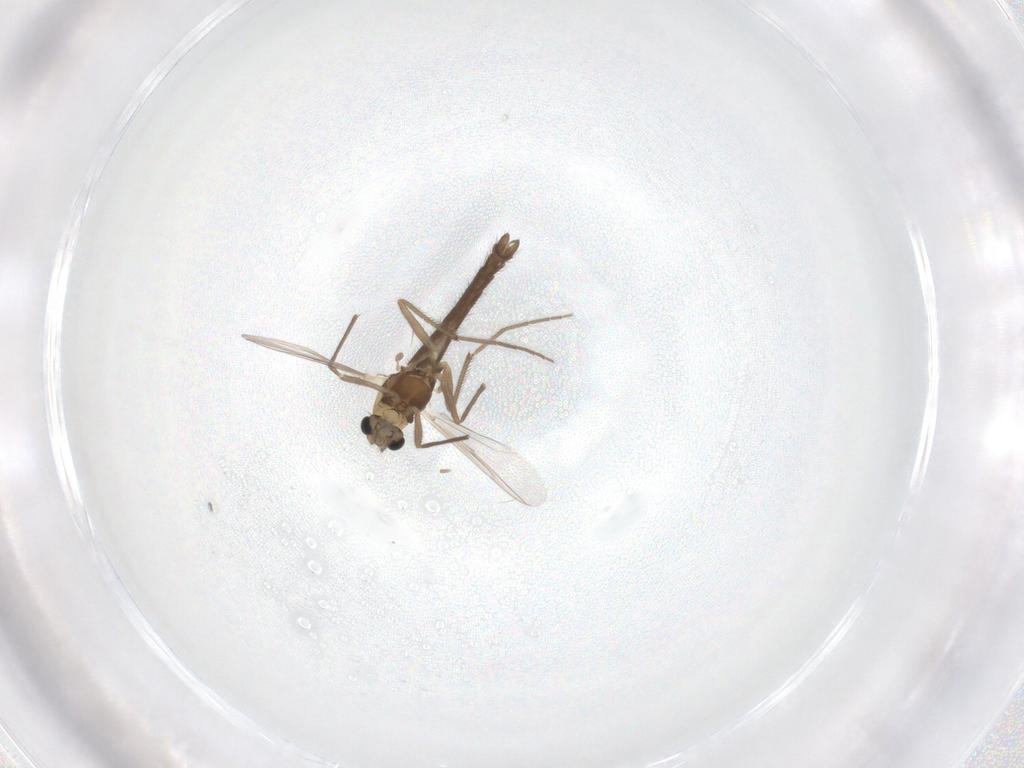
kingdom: Animalia
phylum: Arthropoda
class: Insecta
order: Diptera
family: Chironomidae
